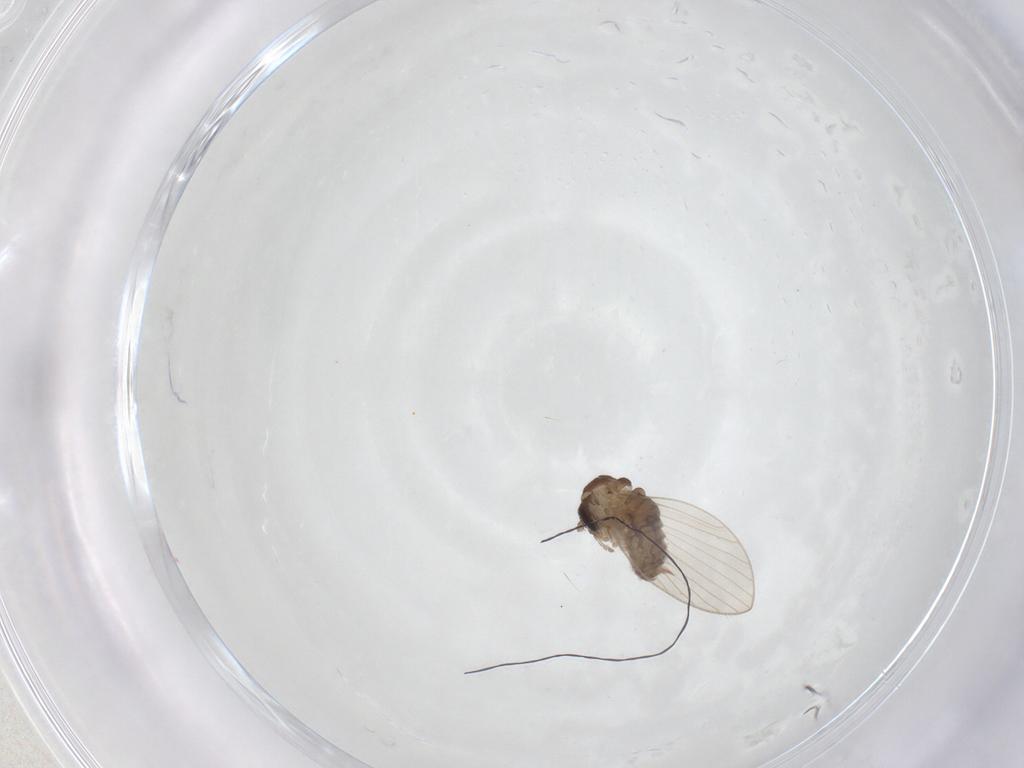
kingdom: Animalia
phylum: Arthropoda
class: Insecta
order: Diptera
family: Psychodidae
